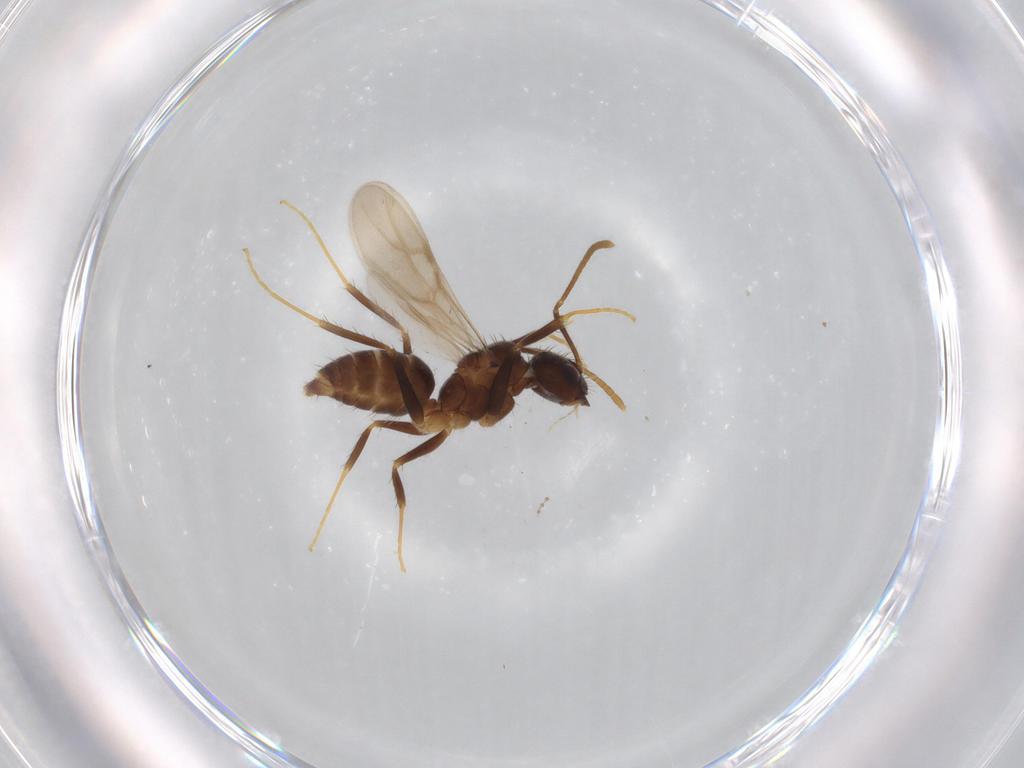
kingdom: Animalia
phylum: Arthropoda
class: Insecta
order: Hymenoptera
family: Formicidae
